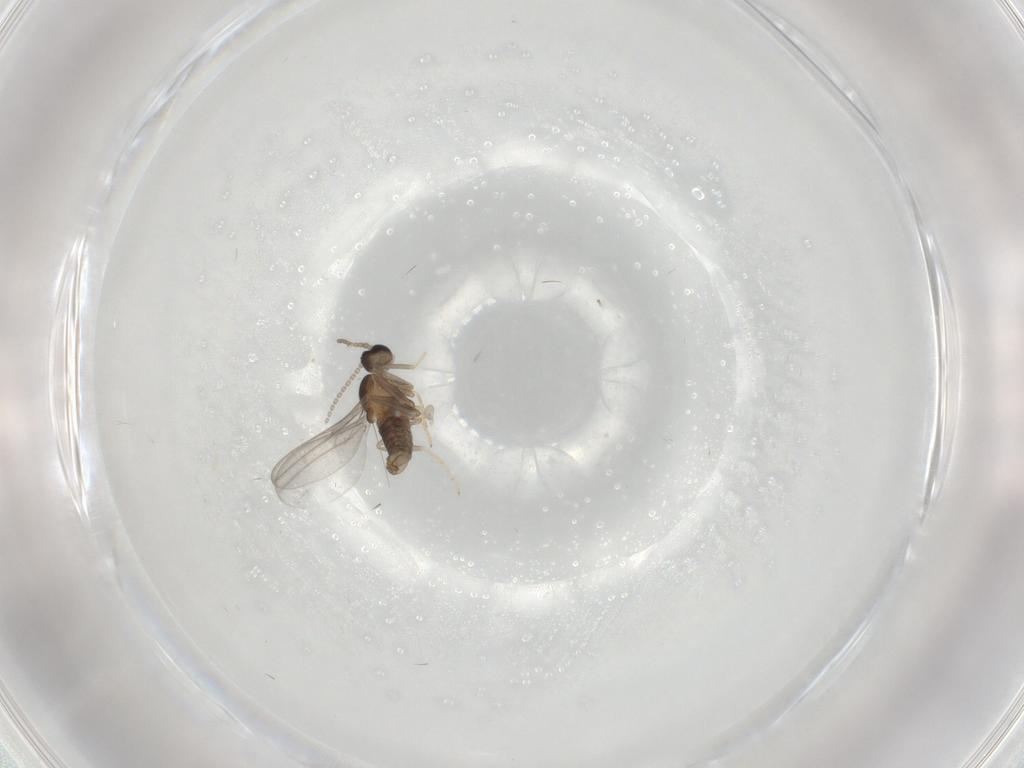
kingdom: Animalia
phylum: Arthropoda
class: Insecta
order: Diptera
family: Cecidomyiidae
